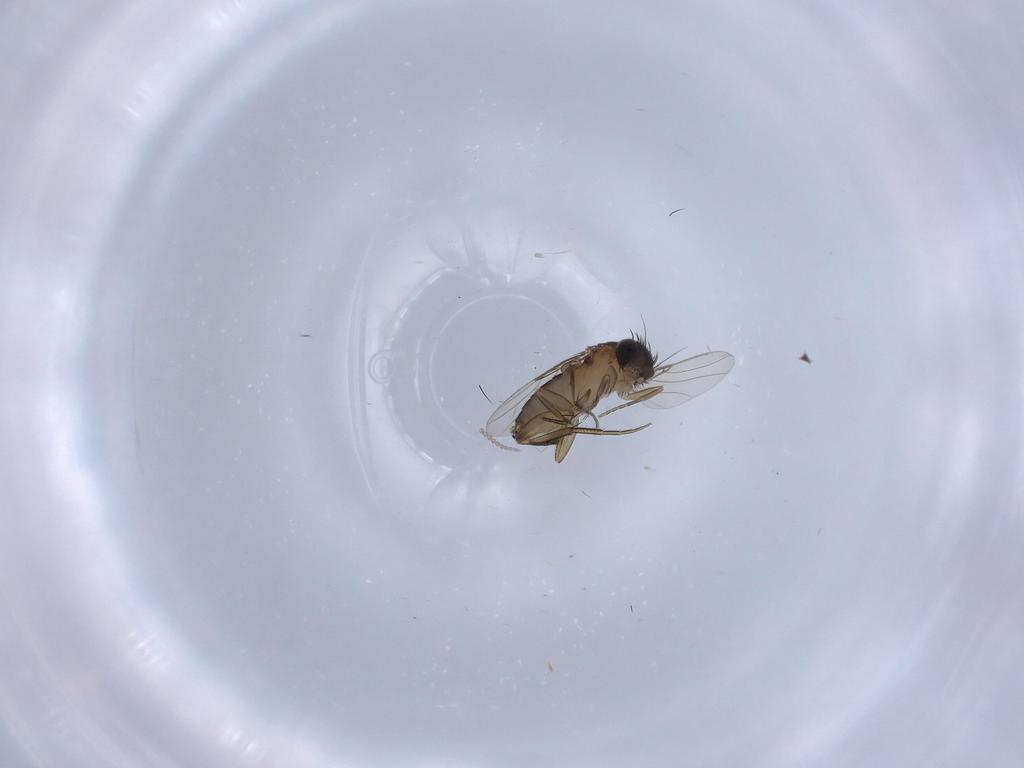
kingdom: Animalia
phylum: Arthropoda
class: Insecta
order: Diptera
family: Phoridae
